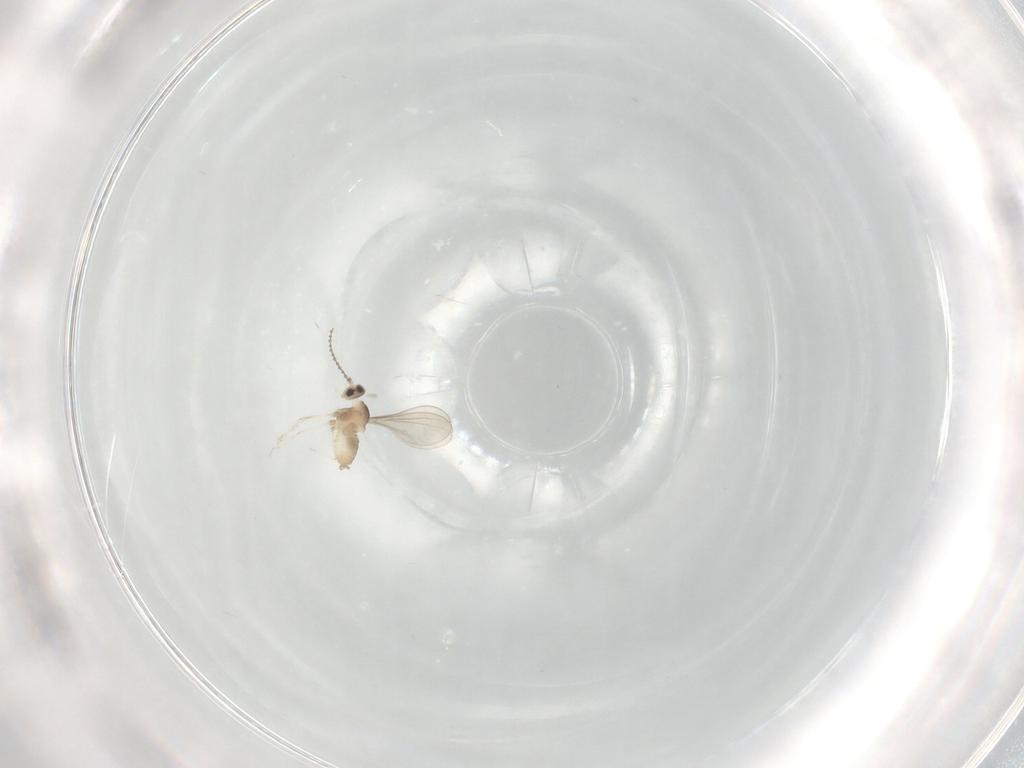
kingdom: Animalia
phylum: Arthropoda
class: Insecta
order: Diptera
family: Cecidomyiidae
